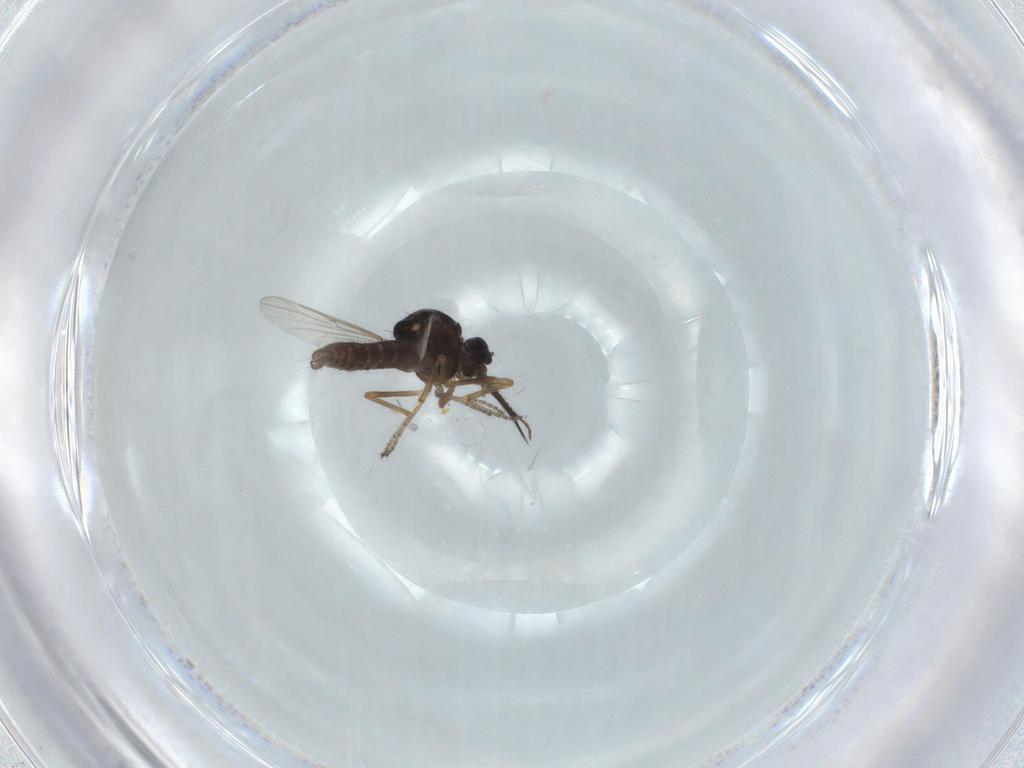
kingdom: Animalia
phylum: Arthropoda
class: Insecta
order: Diptera
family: Ceratopogonidae
